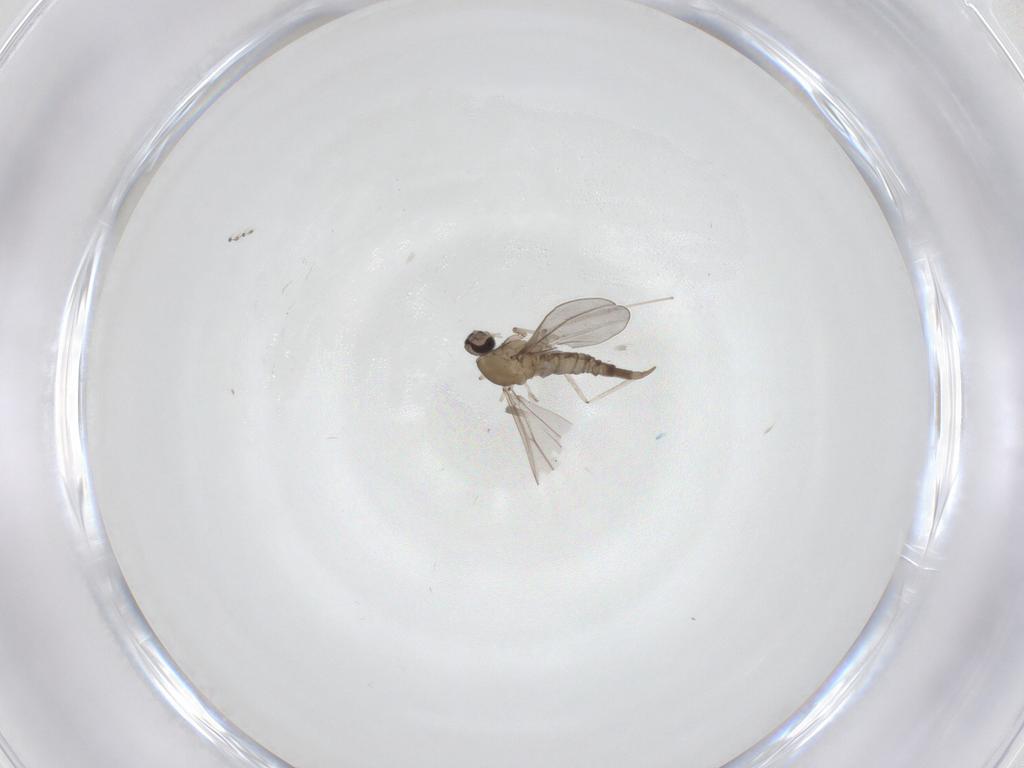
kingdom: Animalia
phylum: Arthropoda
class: Insecta
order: Diptera
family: Cecidomyiidae
